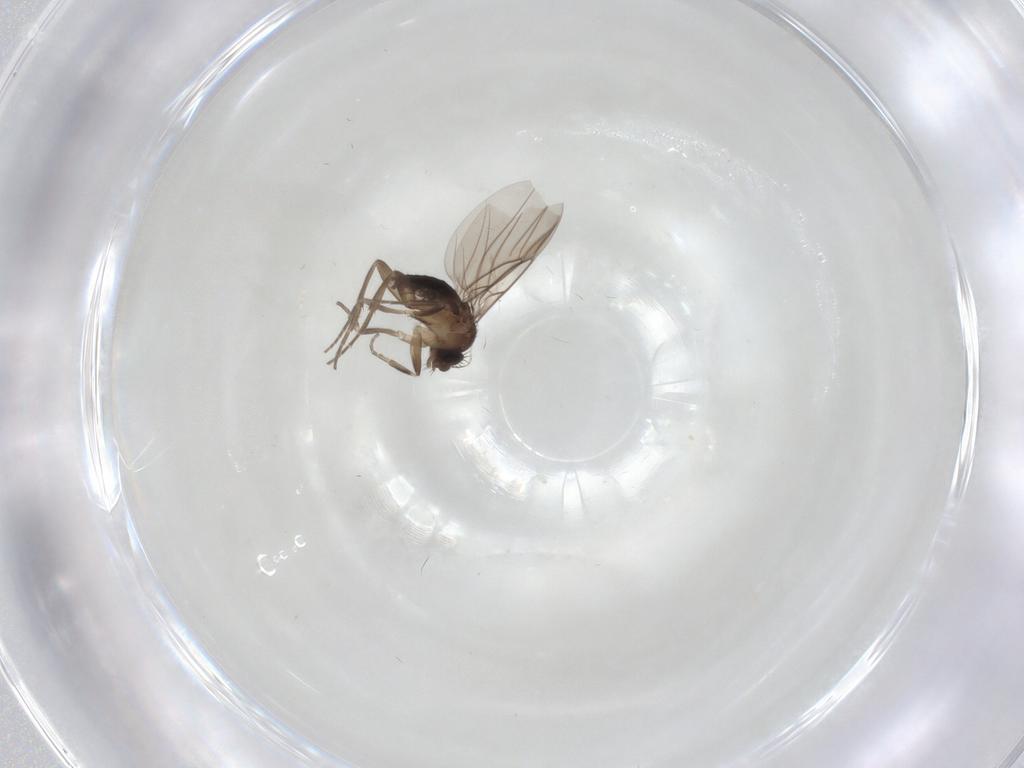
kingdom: Animalia
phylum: Arthropoda
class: Insecta
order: Diptera
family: Phoridae
